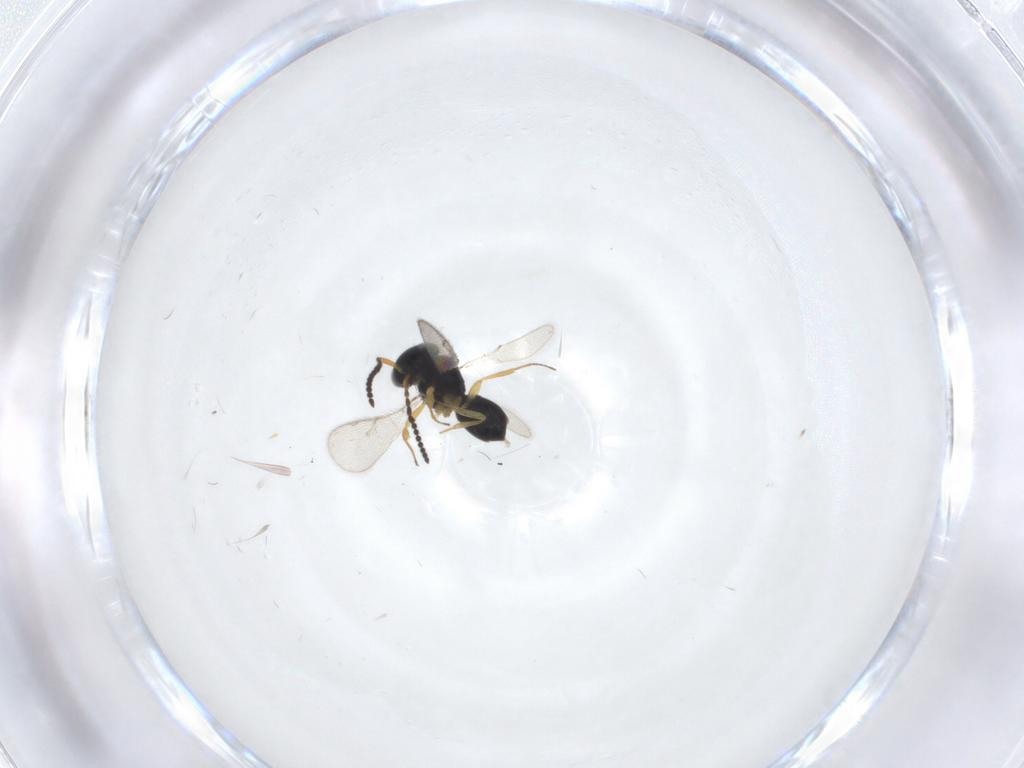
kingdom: Animalia
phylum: Arthropoda
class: Insecta
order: Hymenoptera
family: Scelionidae
